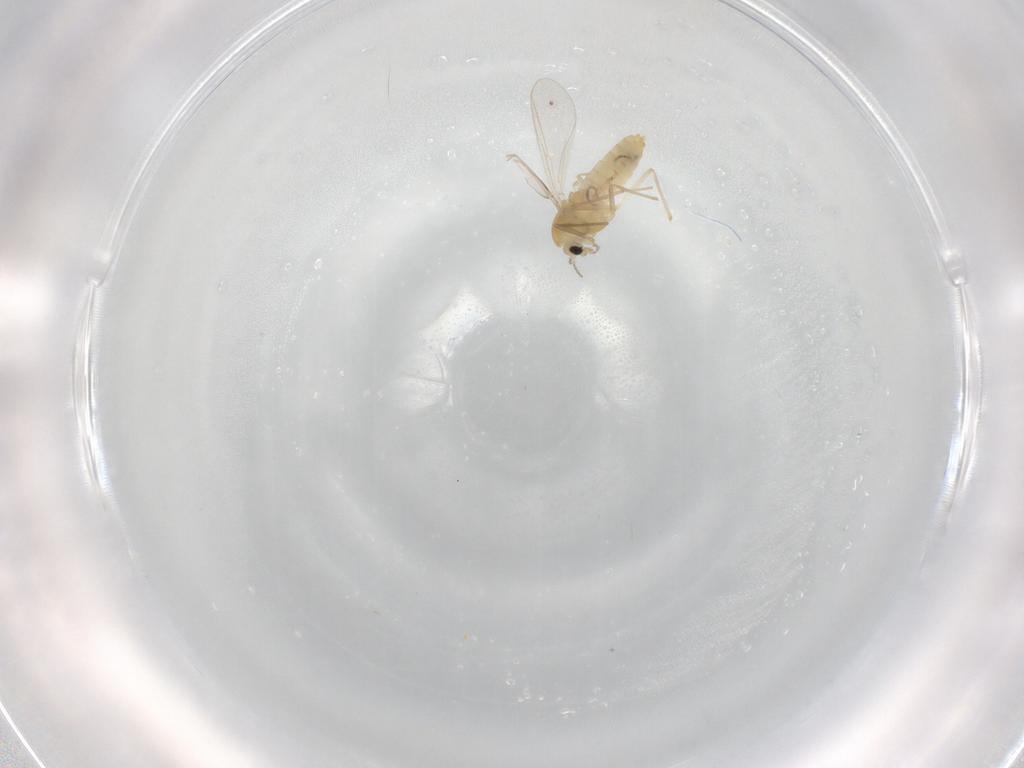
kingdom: Animalia
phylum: Arthropoda
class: Insecta
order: Diptera
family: Chironomidae
